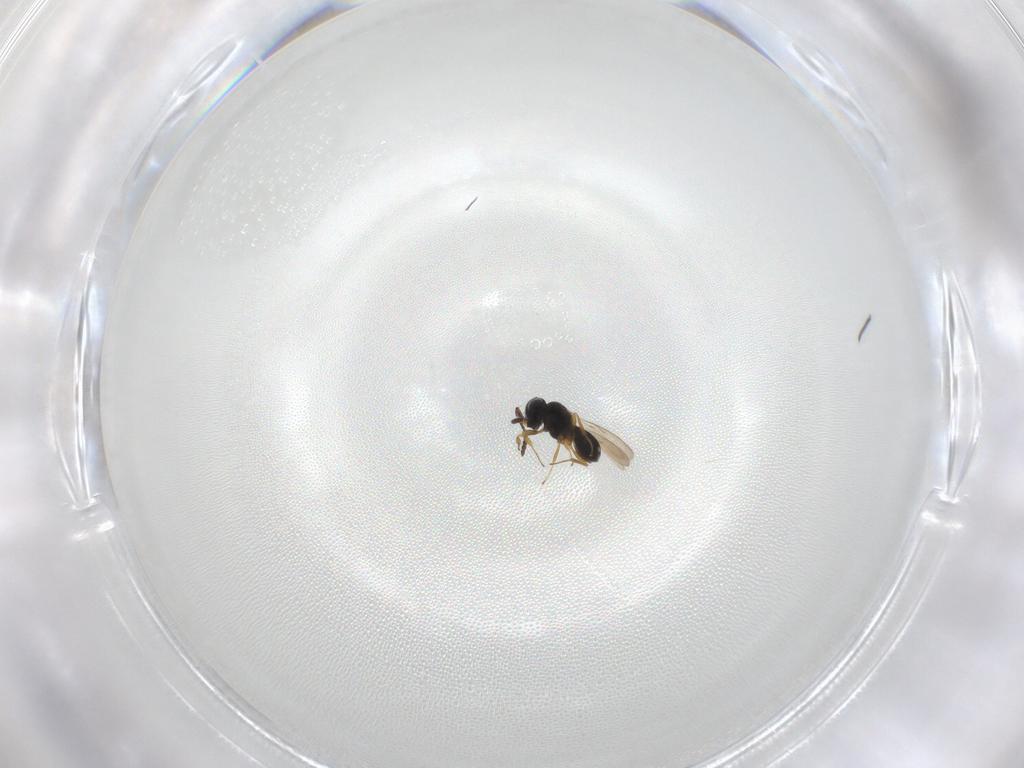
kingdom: Animalia
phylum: Arthropoda
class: Insecta
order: Hymenoptera
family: Scelionidae
